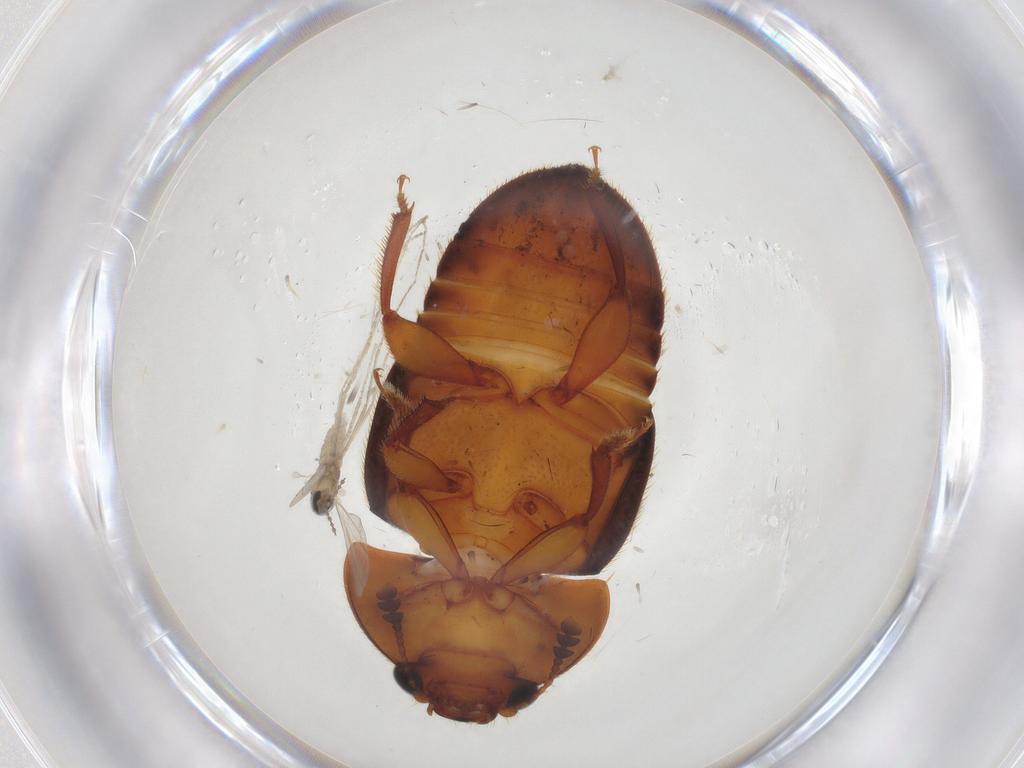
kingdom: Animalia
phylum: Arthropoda
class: Insecta
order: Diptera
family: Cecidomyiidae
